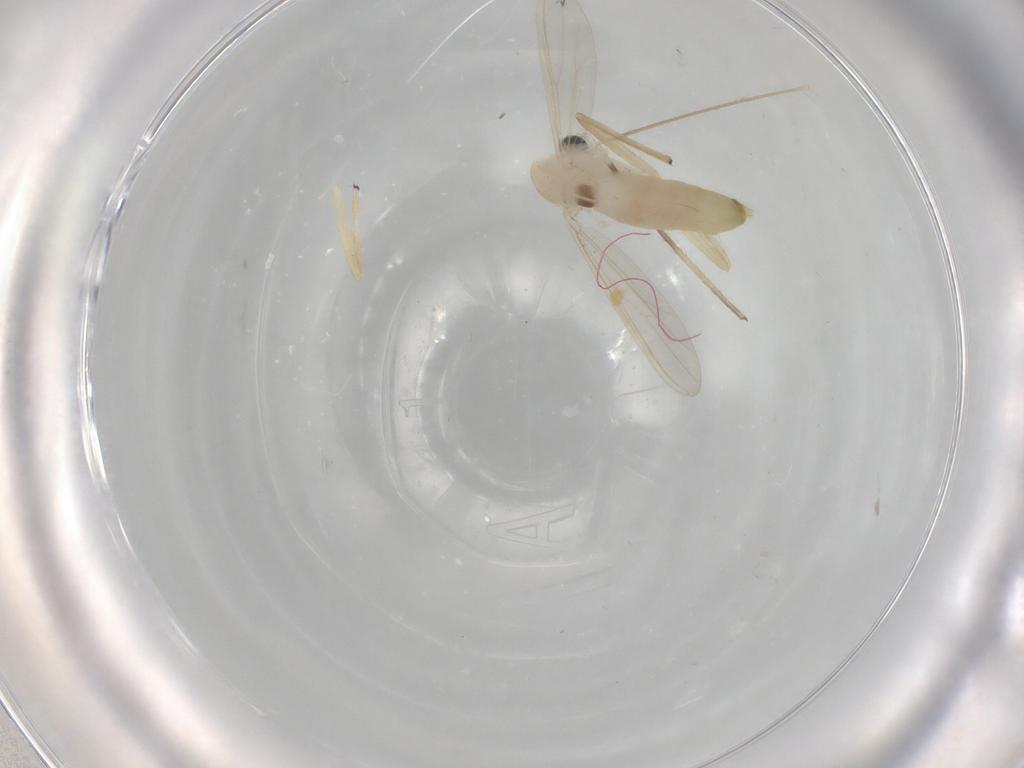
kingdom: Animalia
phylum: Arthropoda
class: Insecta
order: Diptera
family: Chironomidae
